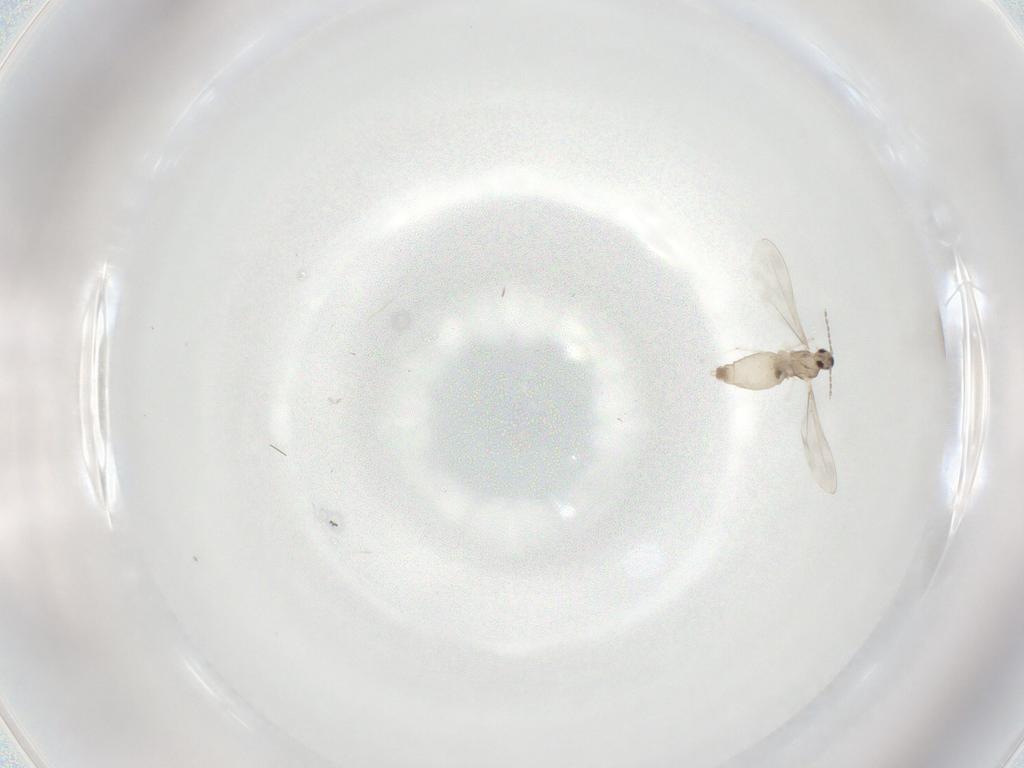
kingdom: Animalia
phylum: Arthropoda
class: Insecta
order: Diptera
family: Cecidomyiidae
